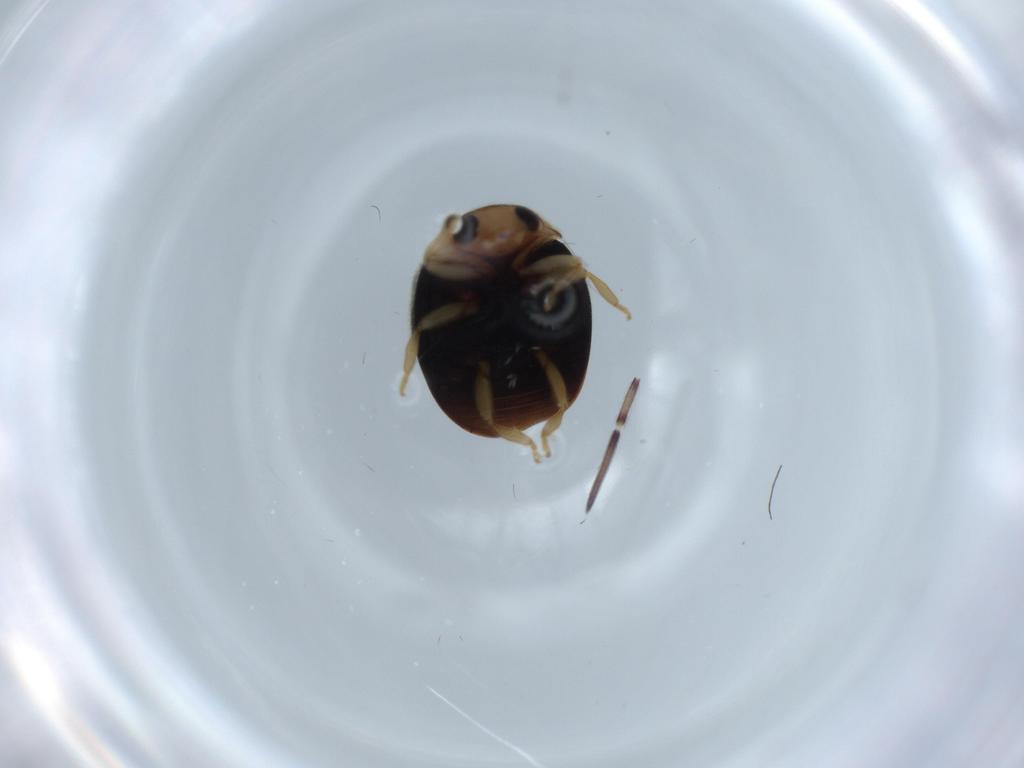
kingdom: Animalia
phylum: Arthropoda
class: Insecta
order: Coleoptera
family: Coccinellidae
